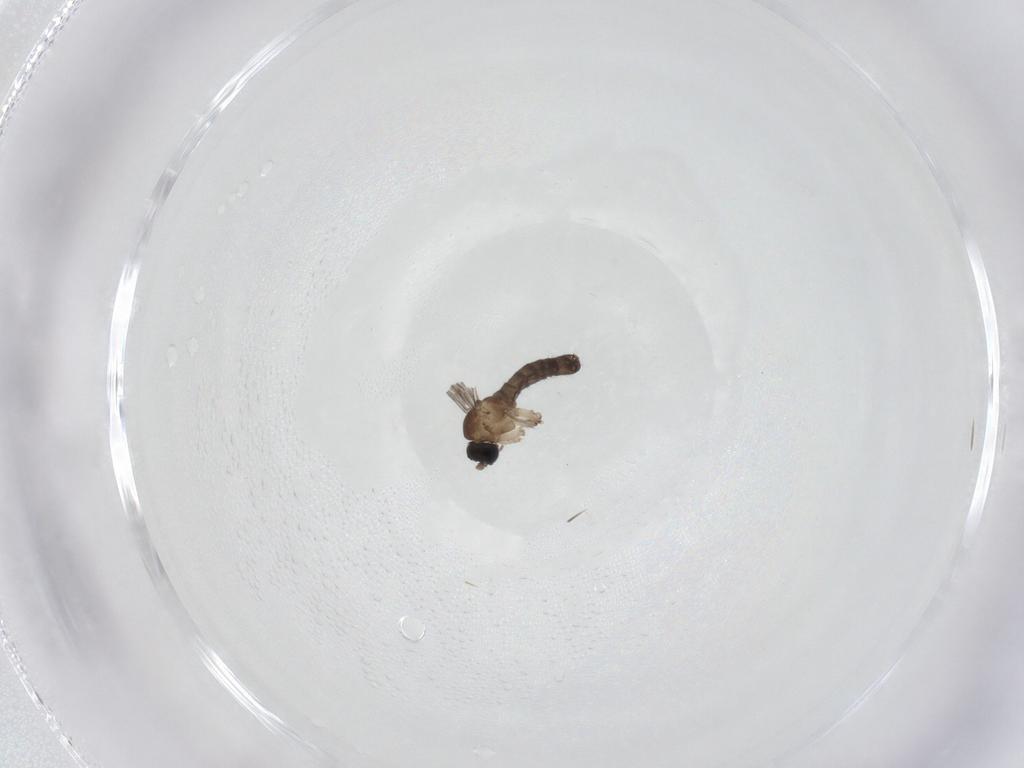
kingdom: Animalia
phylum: Arthropoda
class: Insecta
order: Diptera
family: Sciaridae
